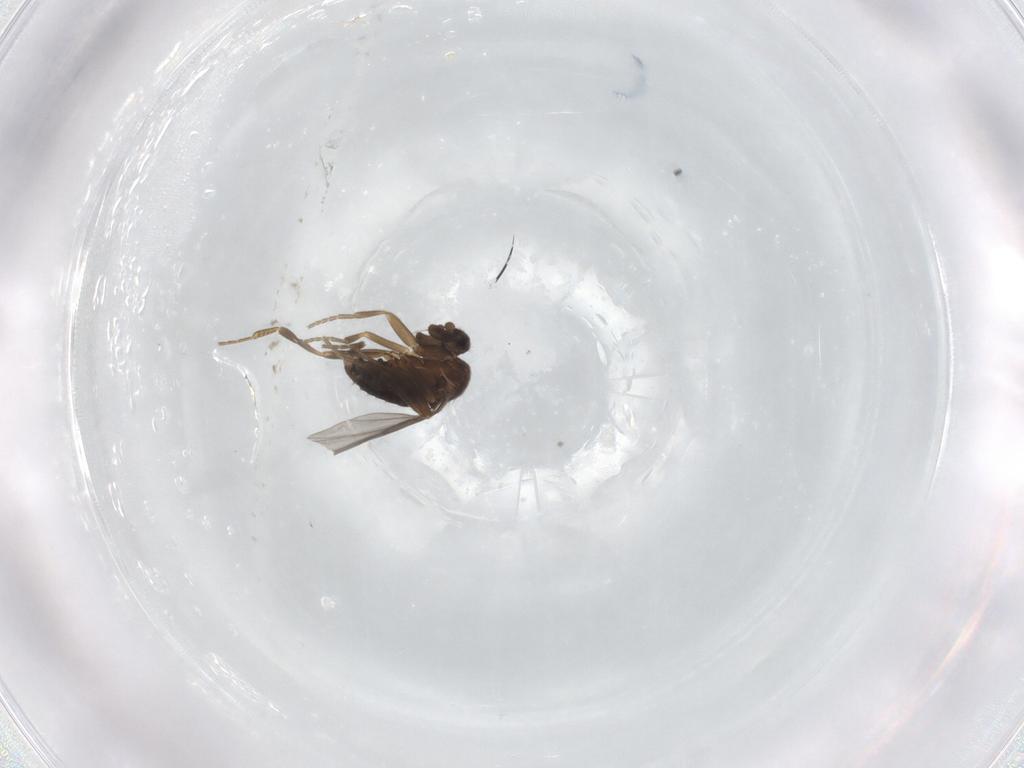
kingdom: Animalia
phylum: Arthropoda
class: Insecta
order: Diptera
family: Phoridae
